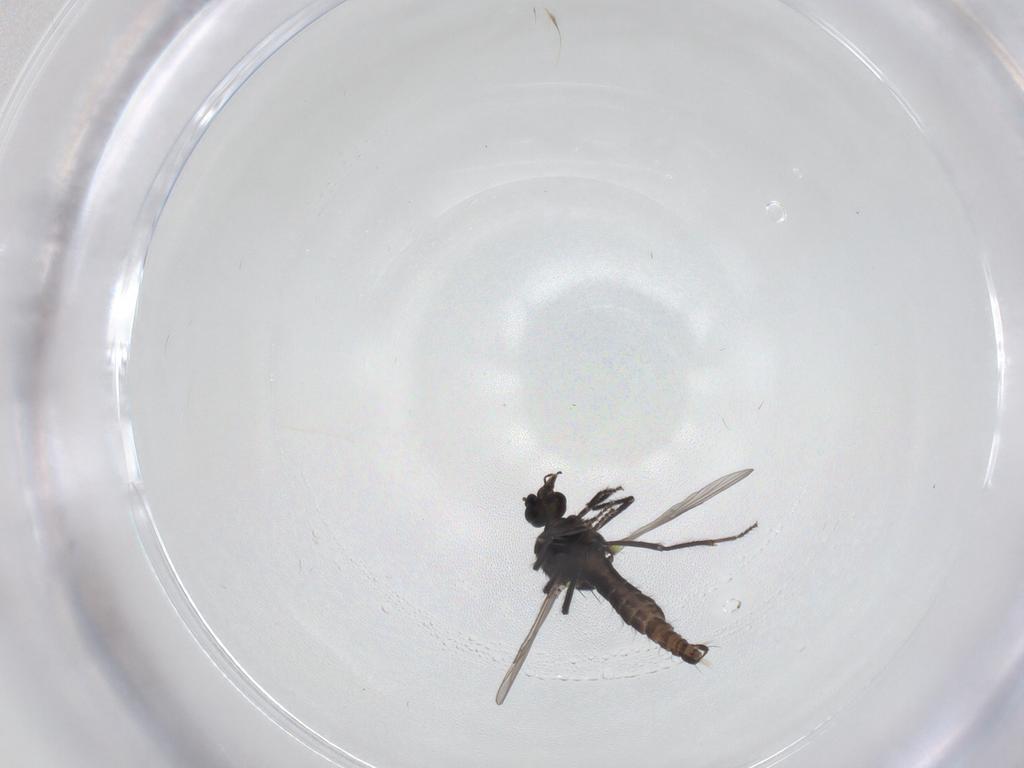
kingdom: Animalia
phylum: Arthropoda
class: Insecta
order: Diptera
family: Ceratopogonidae
